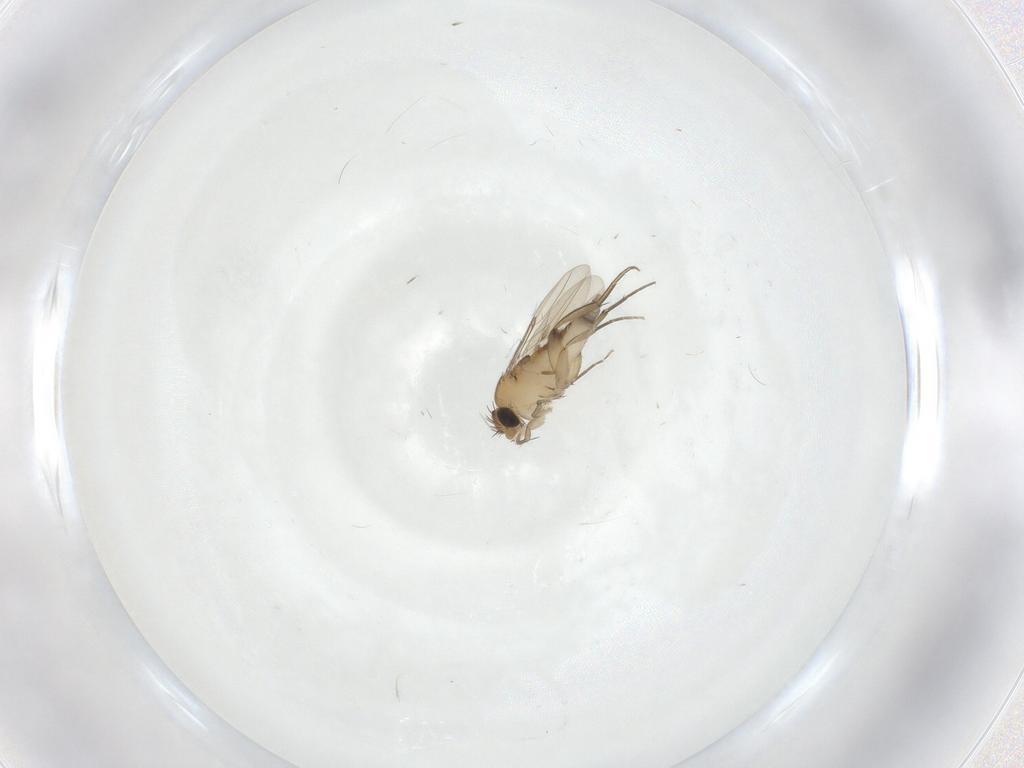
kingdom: Animalia
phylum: Arthropoda
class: Insecta
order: Diptera
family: Phoridae
